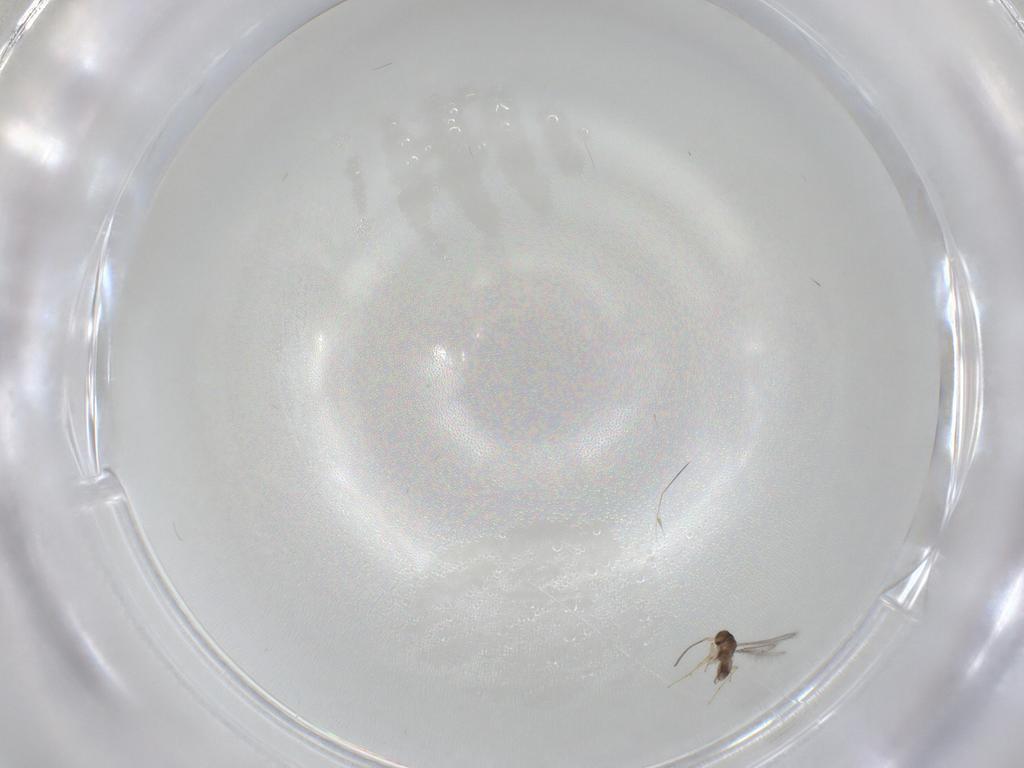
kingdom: Animalia
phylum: Arthropoda
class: Insecta
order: Hymenoptera
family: Mymaridae
